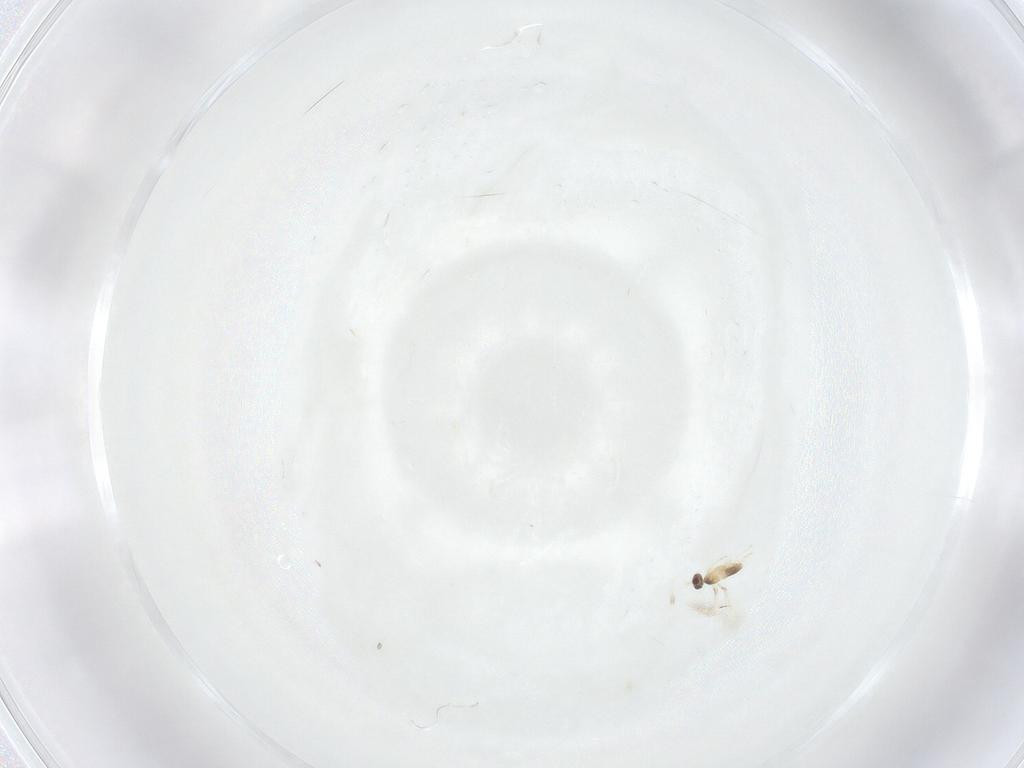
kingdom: Animalia
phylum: Arthropoda
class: Insecta
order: Hymenoptera
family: Mymaridae
